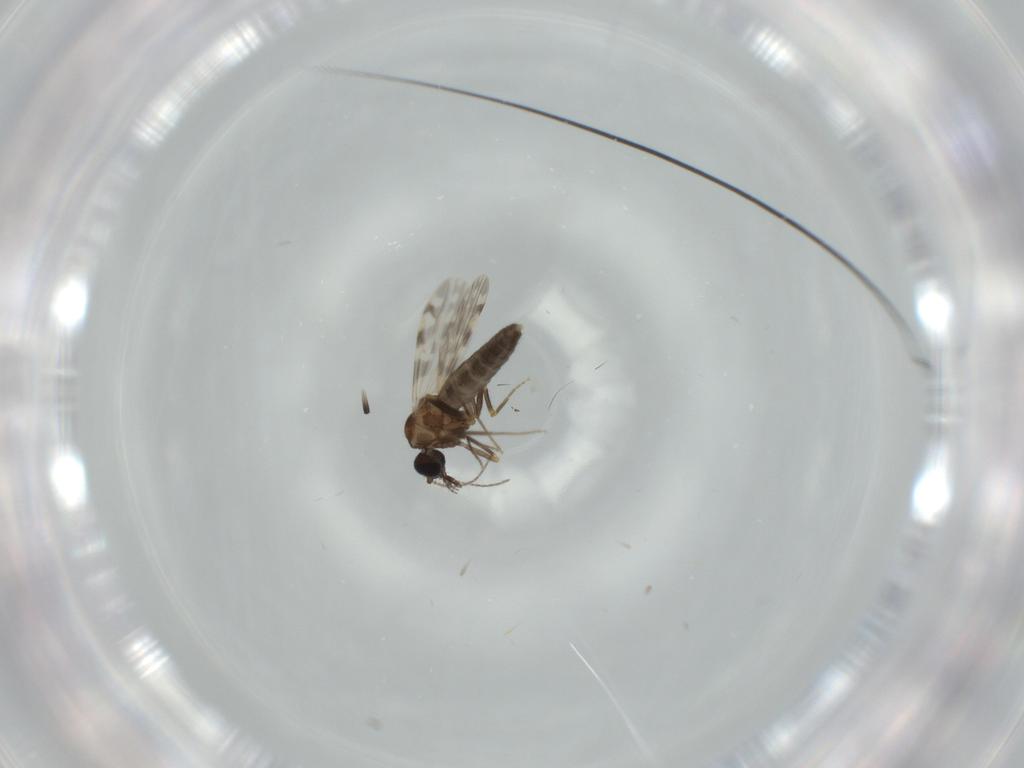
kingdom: Animalia
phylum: Arthropoda
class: Insecta
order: Diptera
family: Ceratopogonidae
